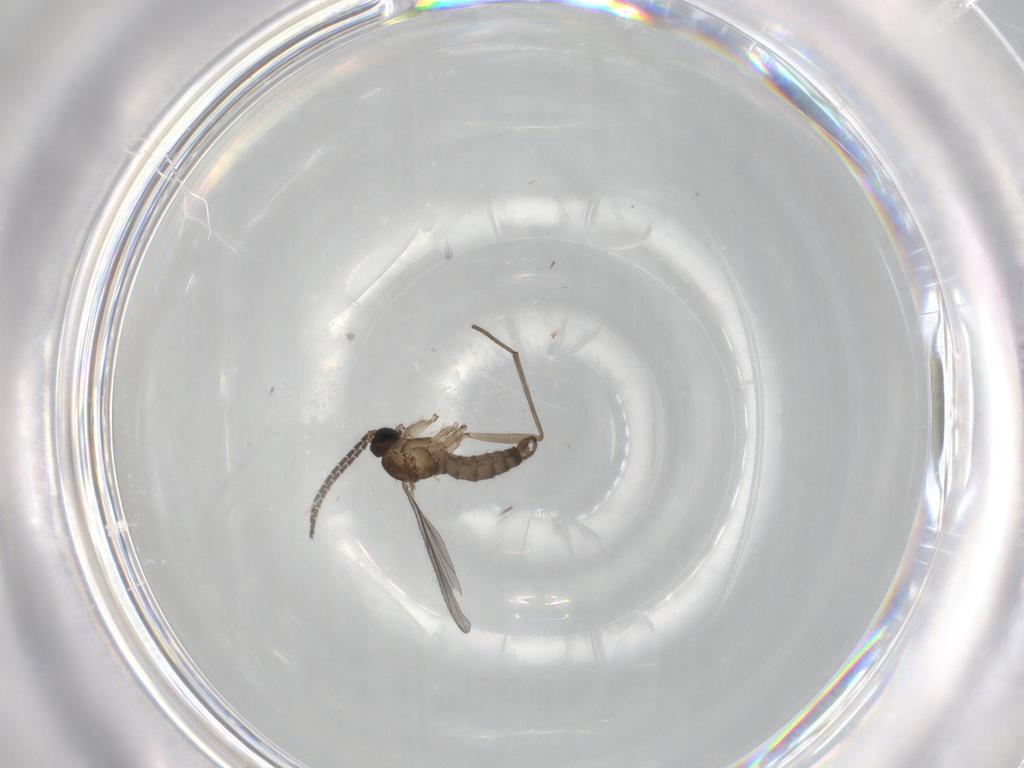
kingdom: Animalia
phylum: Arthropoda
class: Insecta
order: Diptera
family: Sciaridae
